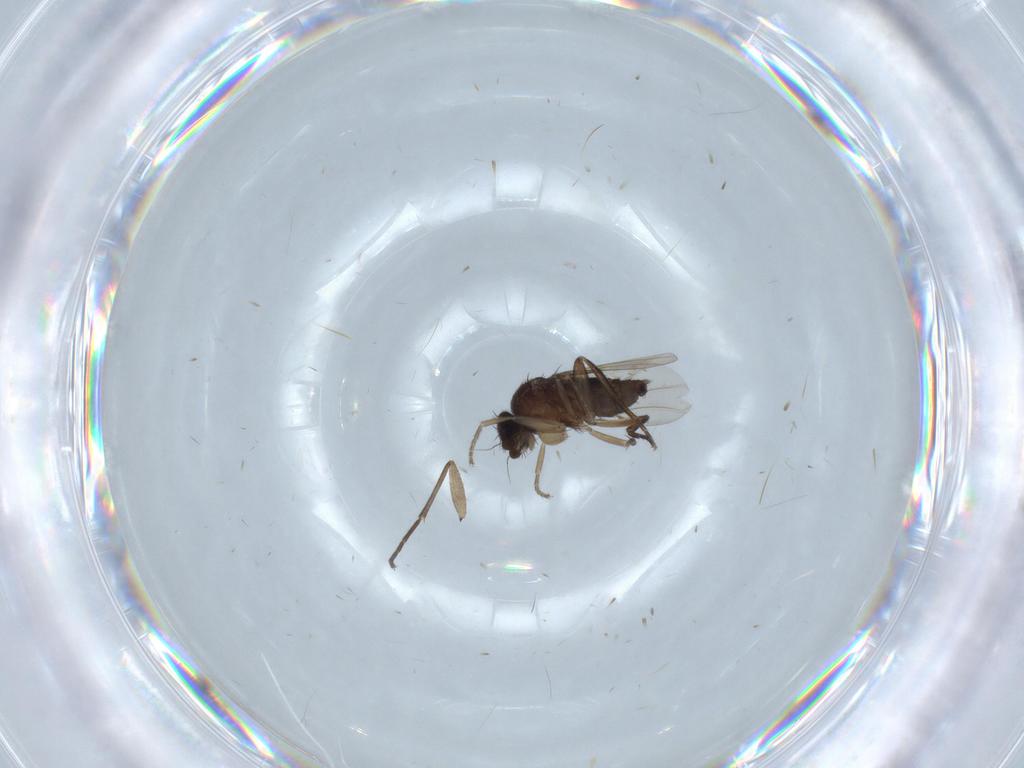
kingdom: Animalia
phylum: Arthropoda
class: Insecta
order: Diptera
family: Phoridae
